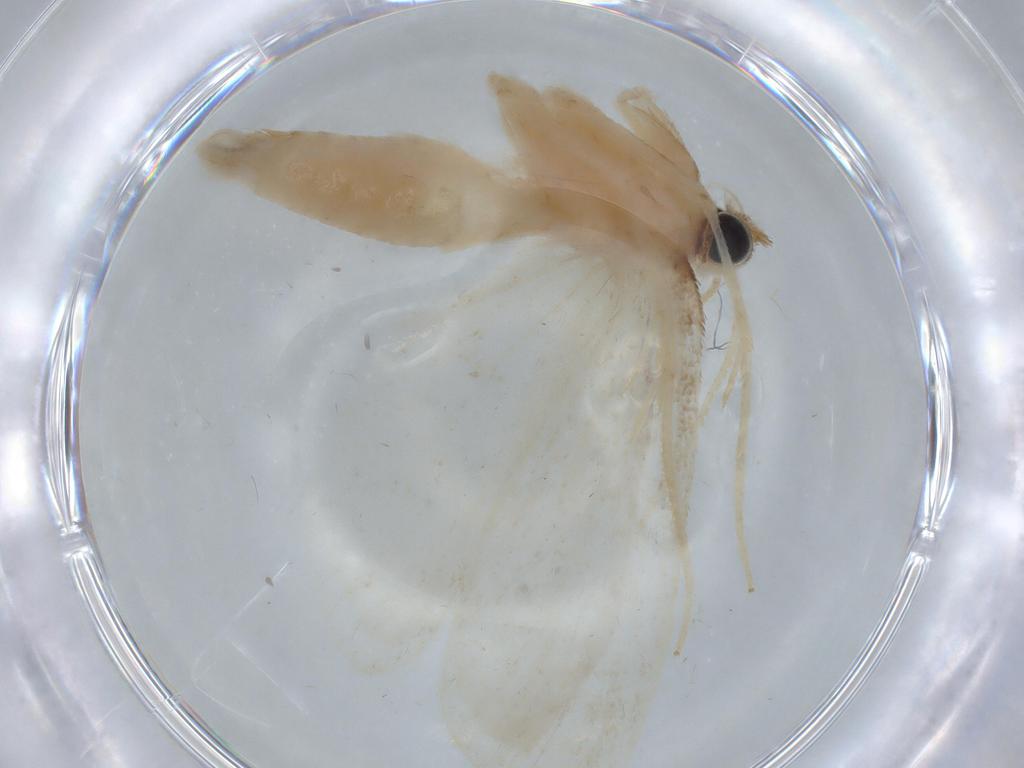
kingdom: Animalia
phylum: Arthropoda
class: Insecta
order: Lepidoptera
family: Crambidae
